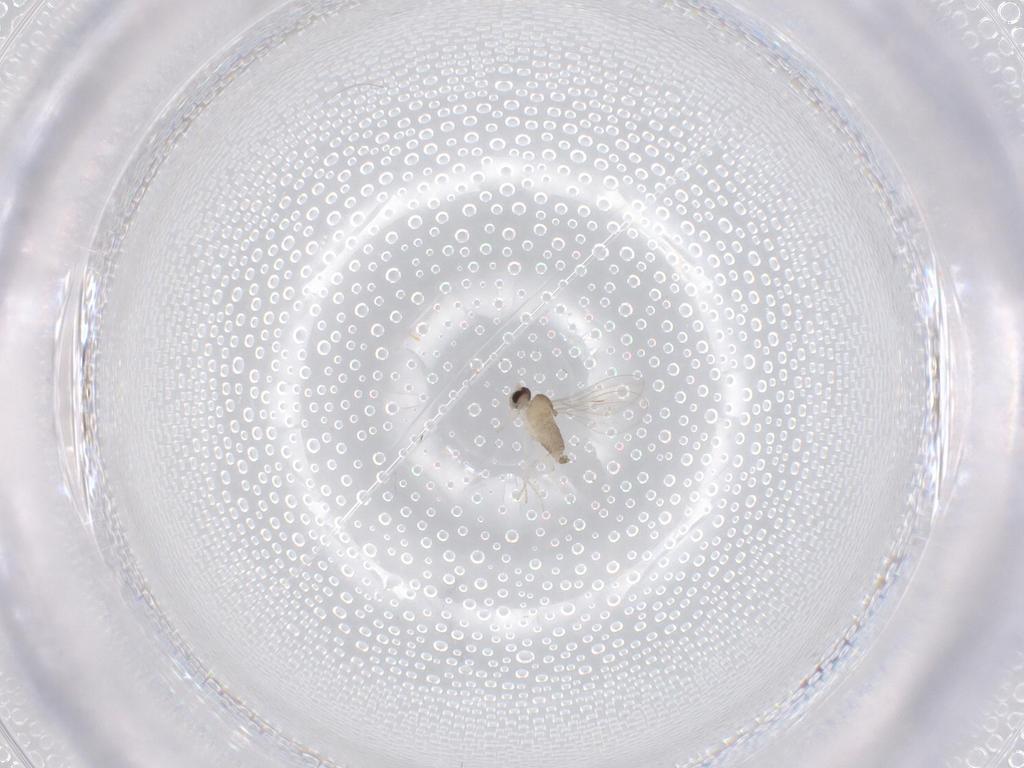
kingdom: Animalia
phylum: Arthropoda
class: Insecta
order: Diptera
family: Cecidomyiidae
